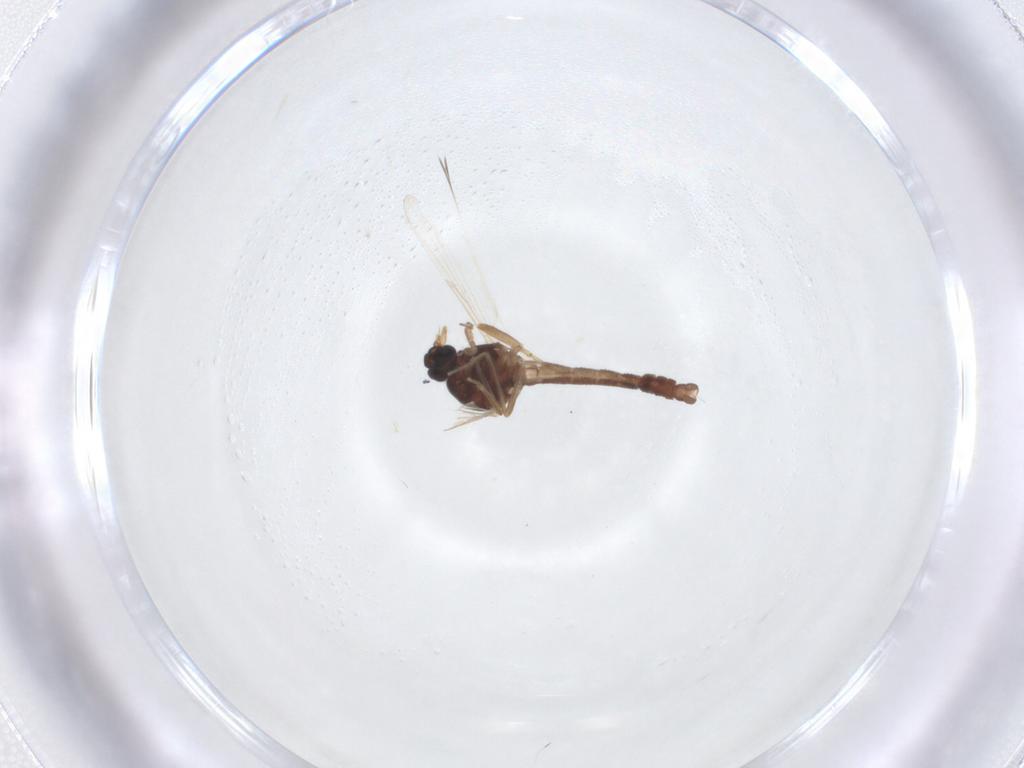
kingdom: Animalia
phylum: Arthropoda
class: Insecta
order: Diptera
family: Ceratopogonidae
